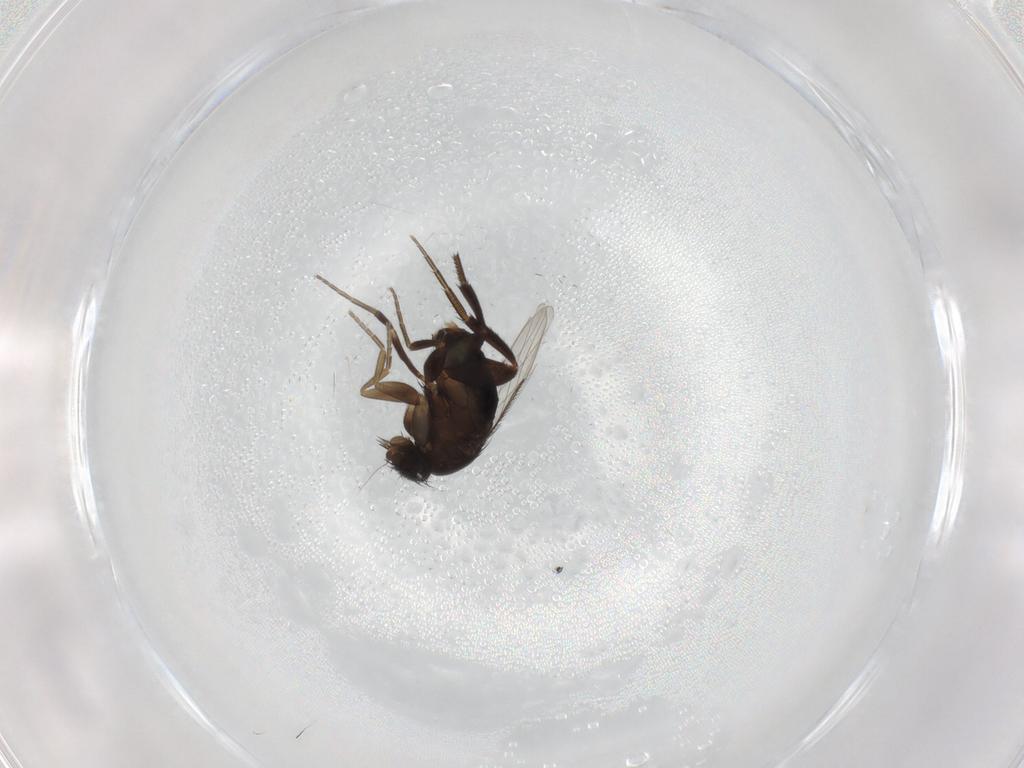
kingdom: Animalia
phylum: Arthropoda
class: Insecta
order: Diptera
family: Phoridae
